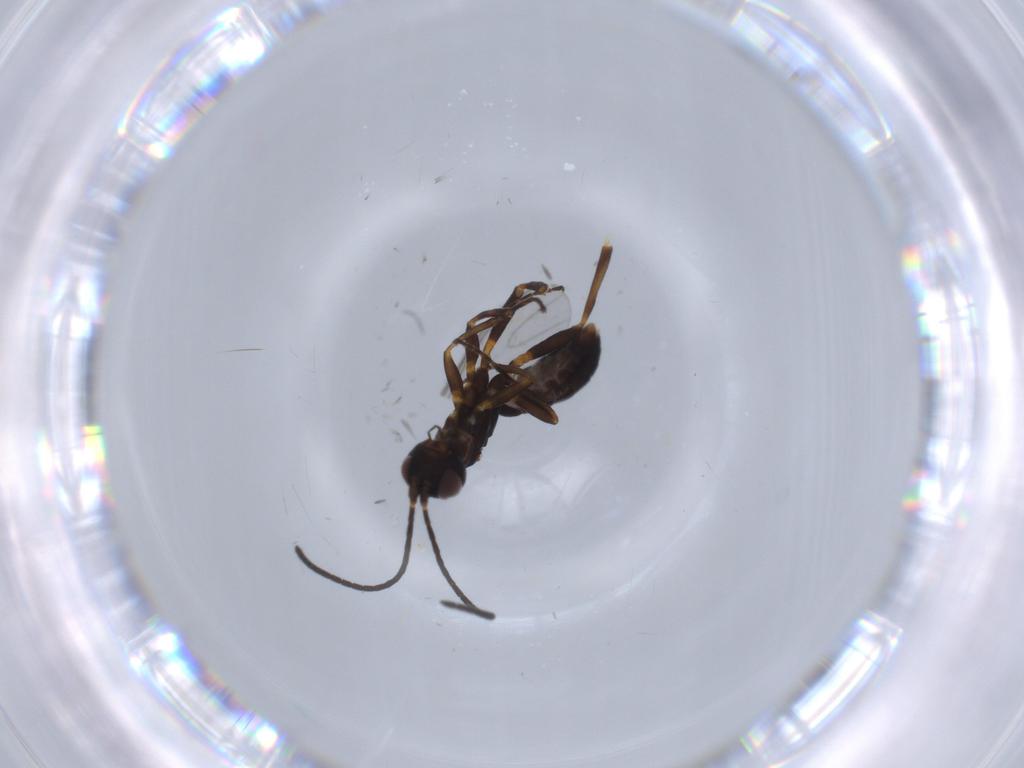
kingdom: Animalia
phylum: Arthropoda
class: Insecta
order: Hymenoptera
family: Ichneumonidae
